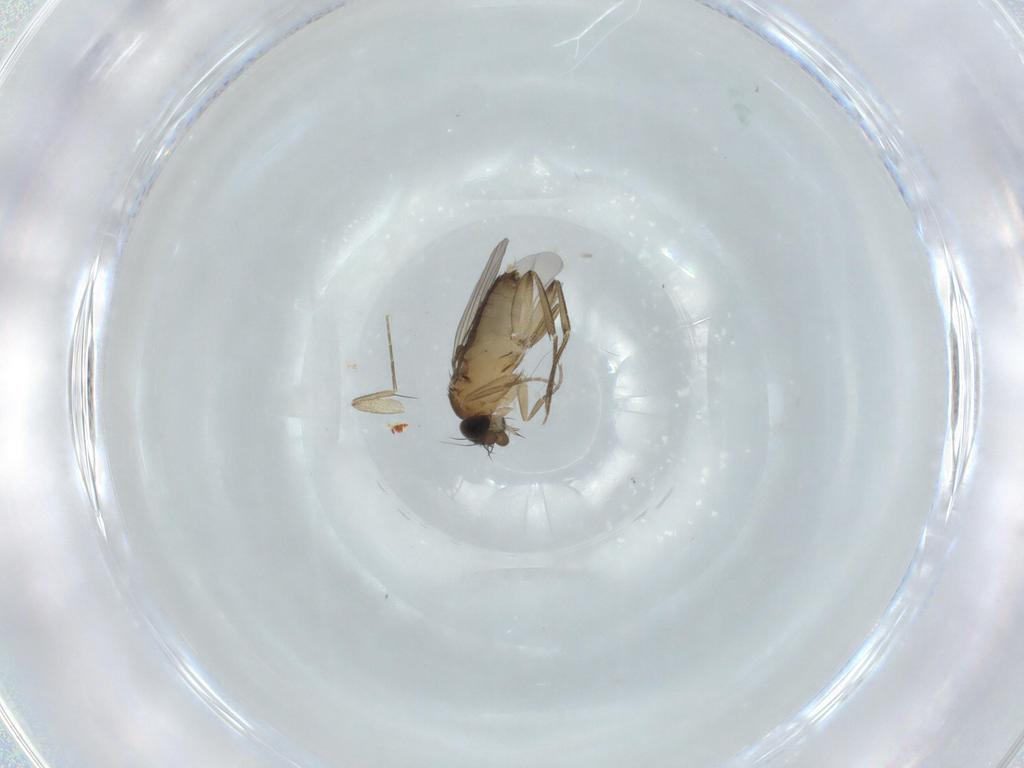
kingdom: Animalia
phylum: Arthropoda
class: Insecta
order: Diptera
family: Phoridae
